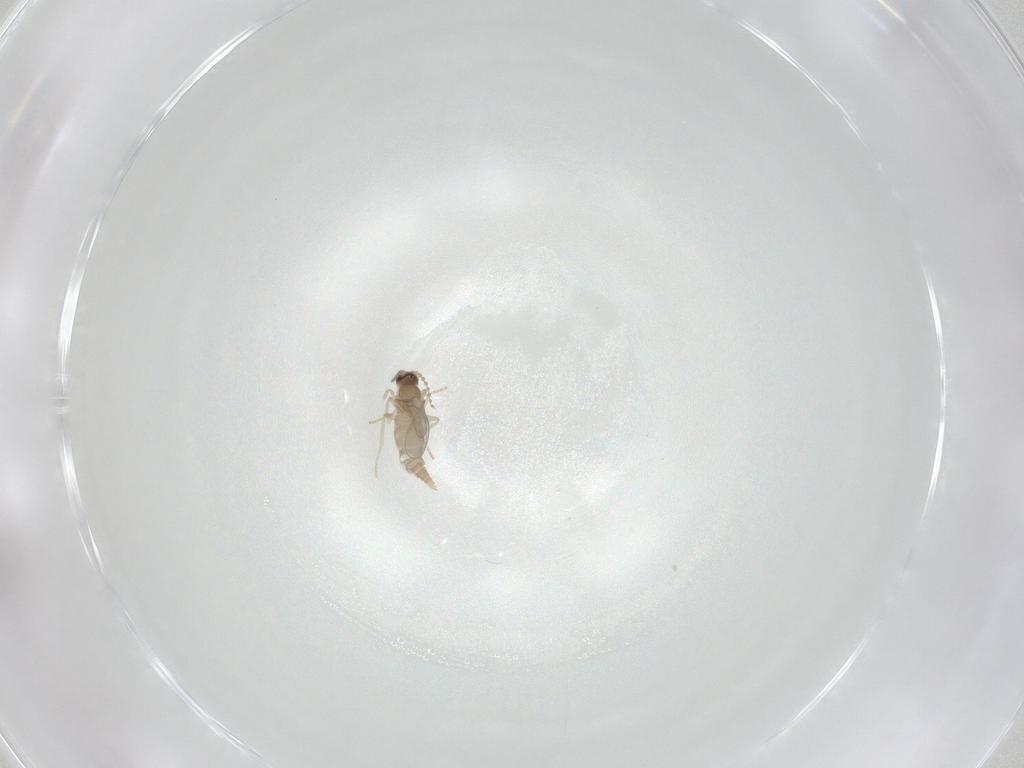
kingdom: Animalia
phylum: Arthropoda
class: Insecta
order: Diptera
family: Cecidomyiidae
